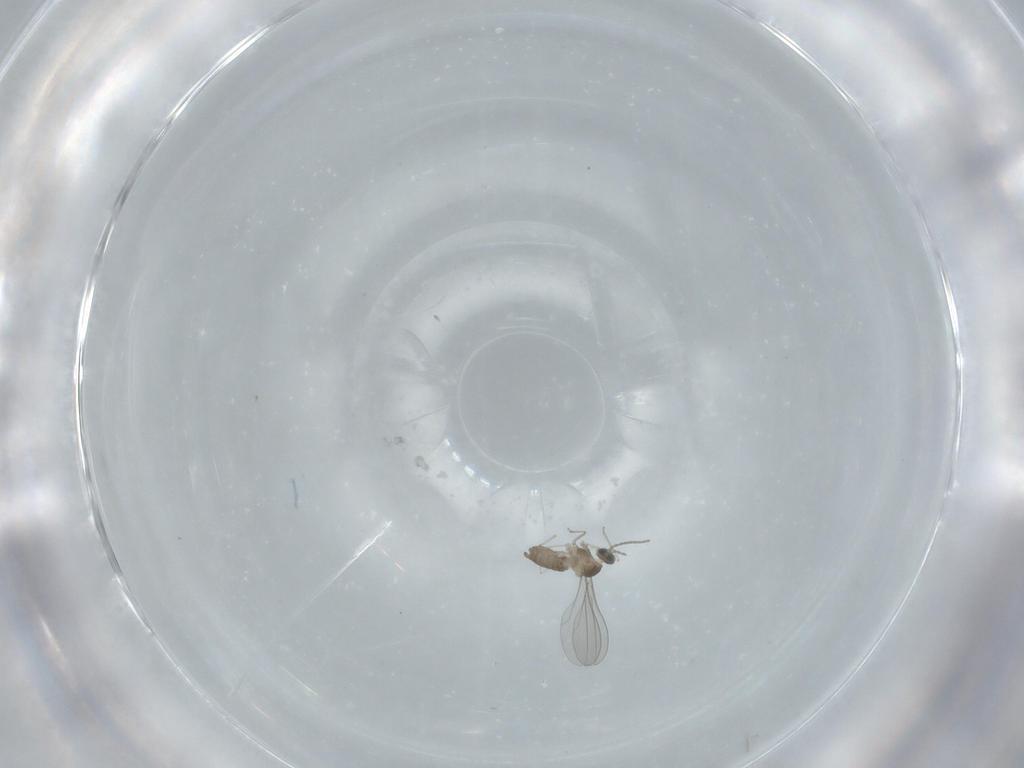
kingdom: Animalia
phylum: Arthropoda
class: Insecta
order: Diptera
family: Cecidomyiidae
